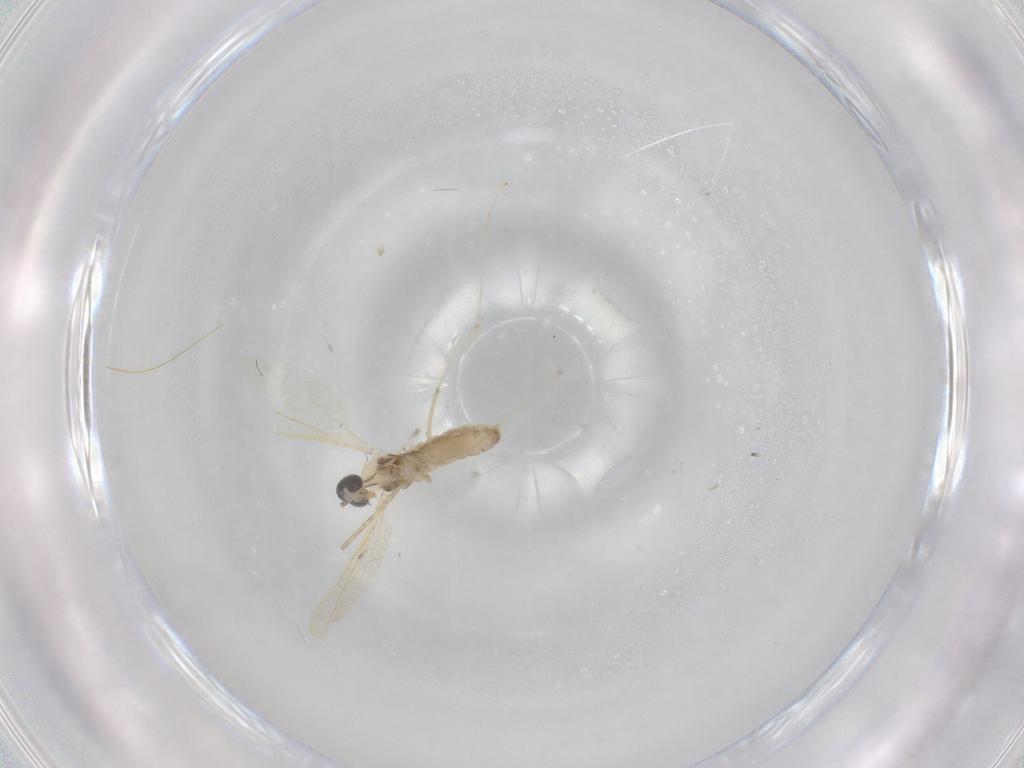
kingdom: Animalia
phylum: Arthropoda
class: Insecta
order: Diptera
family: Cecidomyiidae
